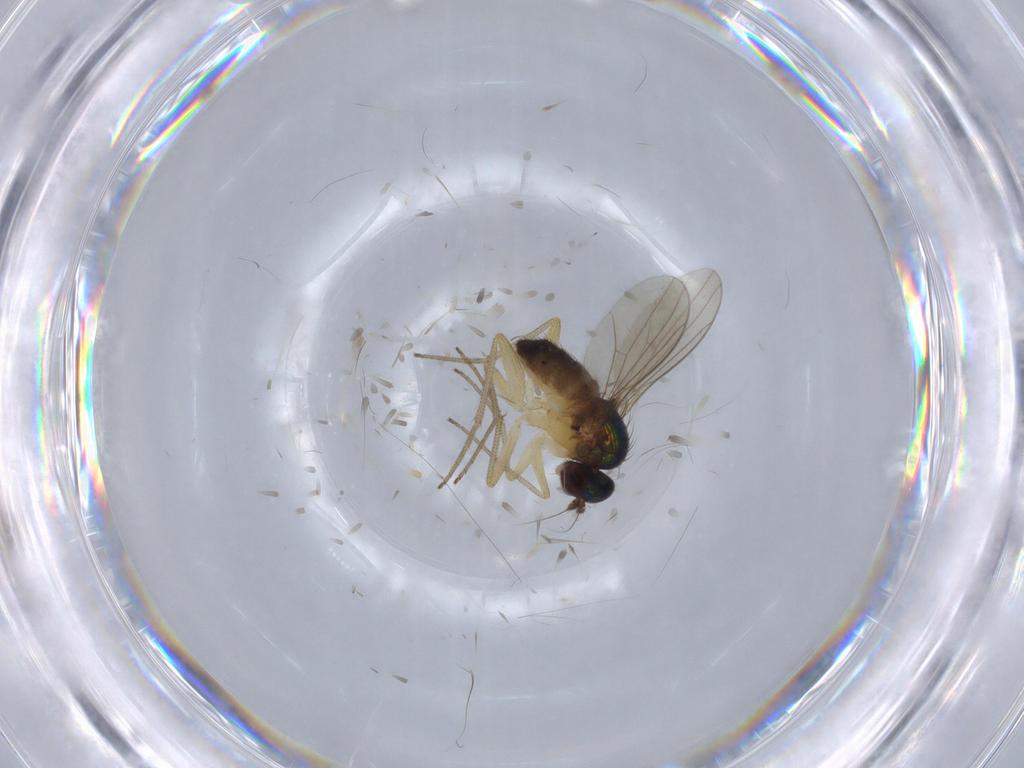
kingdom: Animalia
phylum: Arthropoda
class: Insecta
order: Diptera
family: Dolichopodidae
